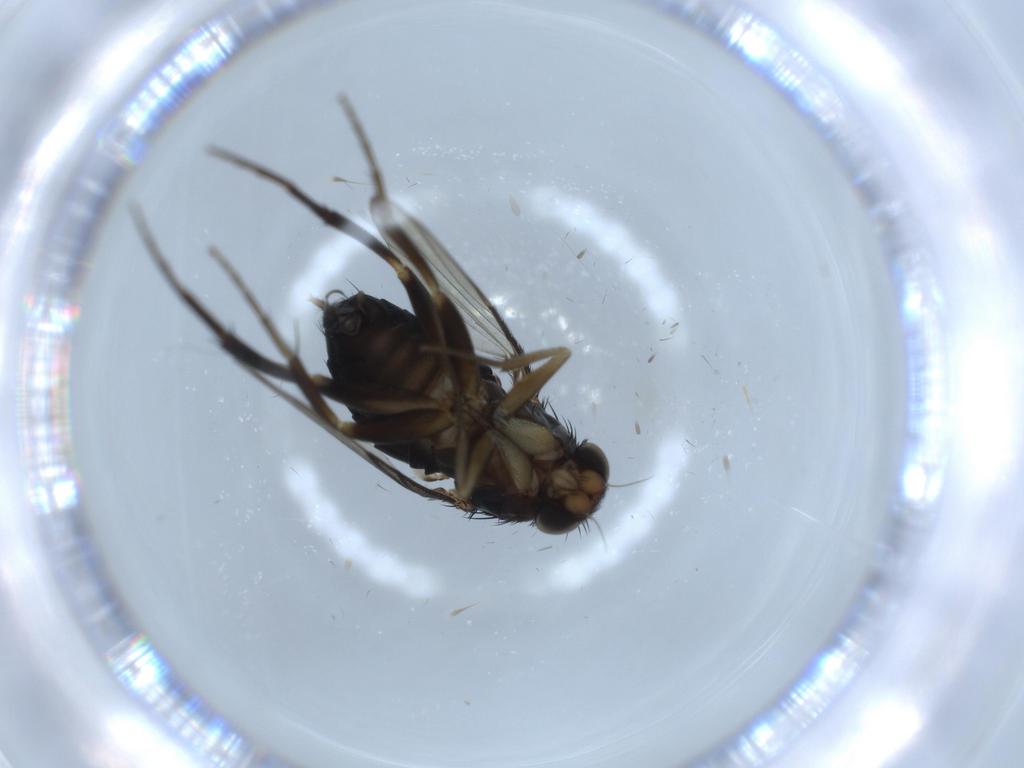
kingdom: Animalia
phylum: Arthropoda
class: Insecta
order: Diptera
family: Phoridae
